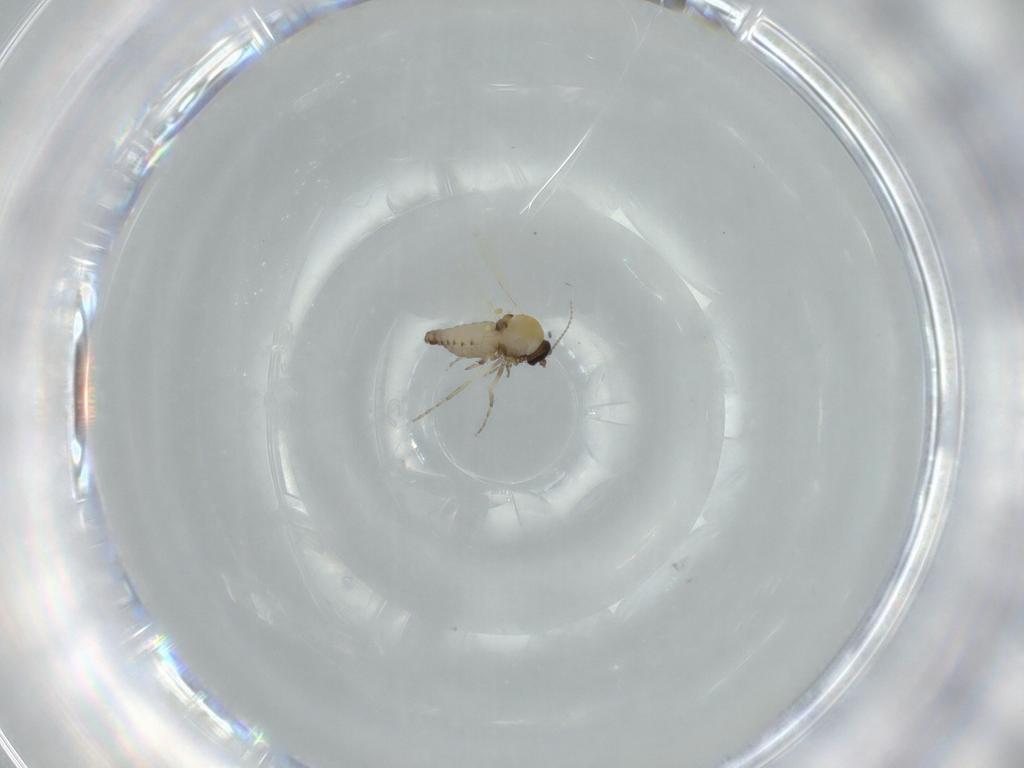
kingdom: Animalia
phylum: Arthropoda
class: Insecta
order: Diptera
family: Ceratopogonidae
